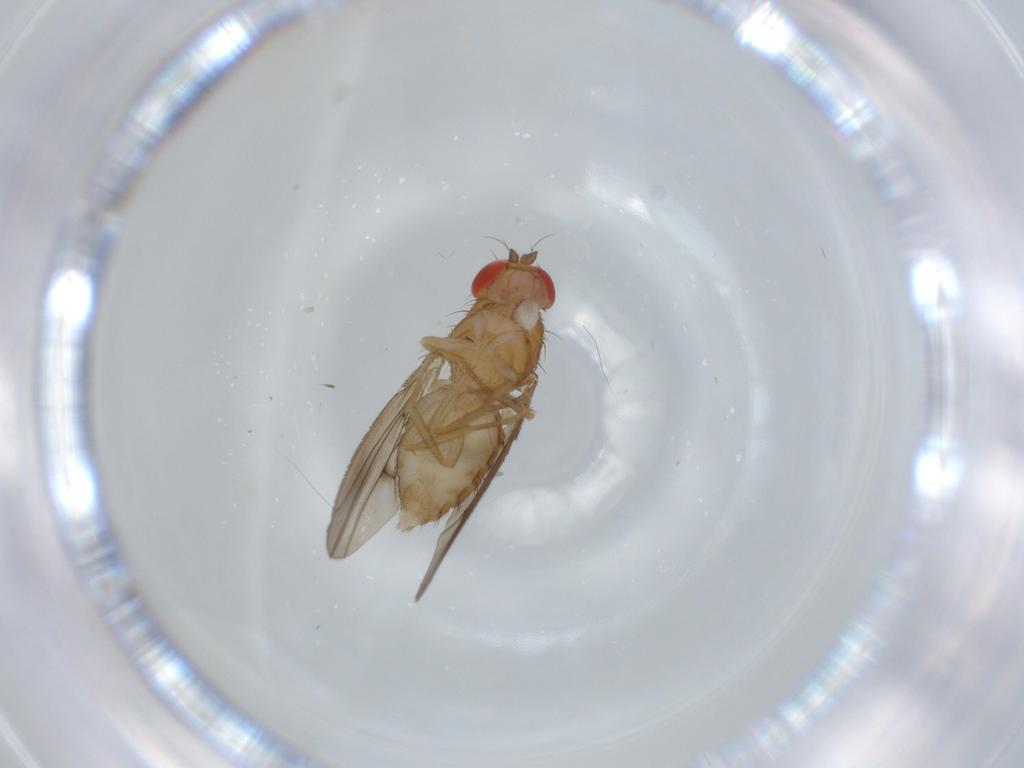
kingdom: Animalia
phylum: Arthropoda
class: Insecta
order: Diptera
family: Drosophilidae
